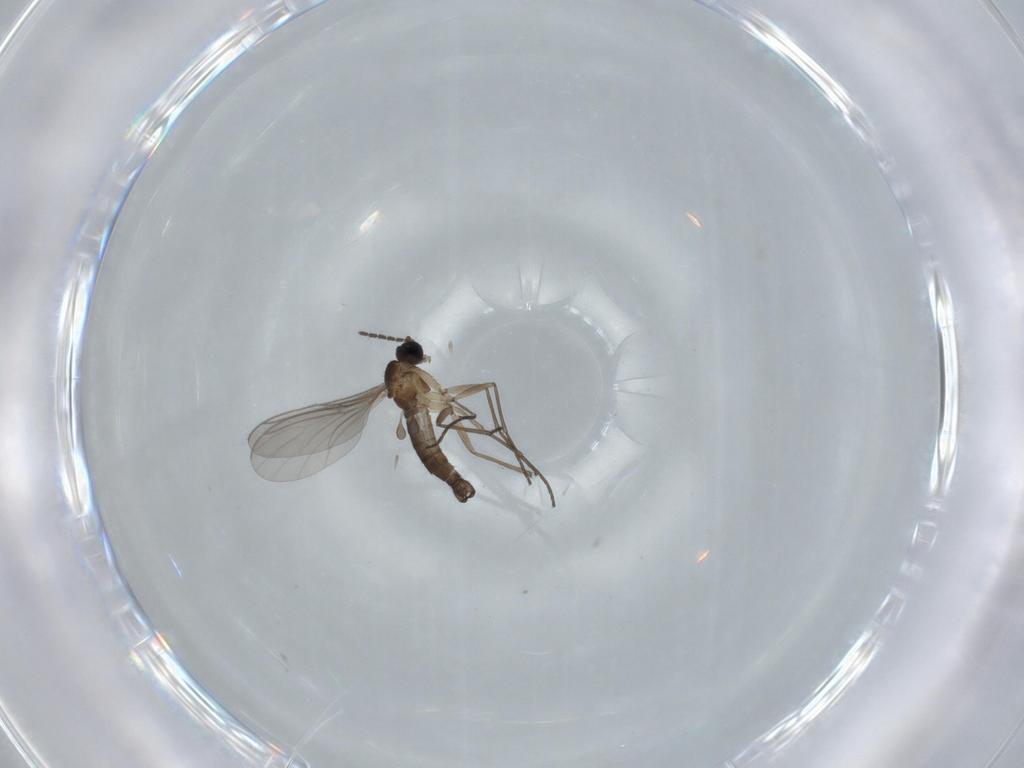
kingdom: Animalia
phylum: Arthropoda
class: Insecta
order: Diptera
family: Sciaridae
